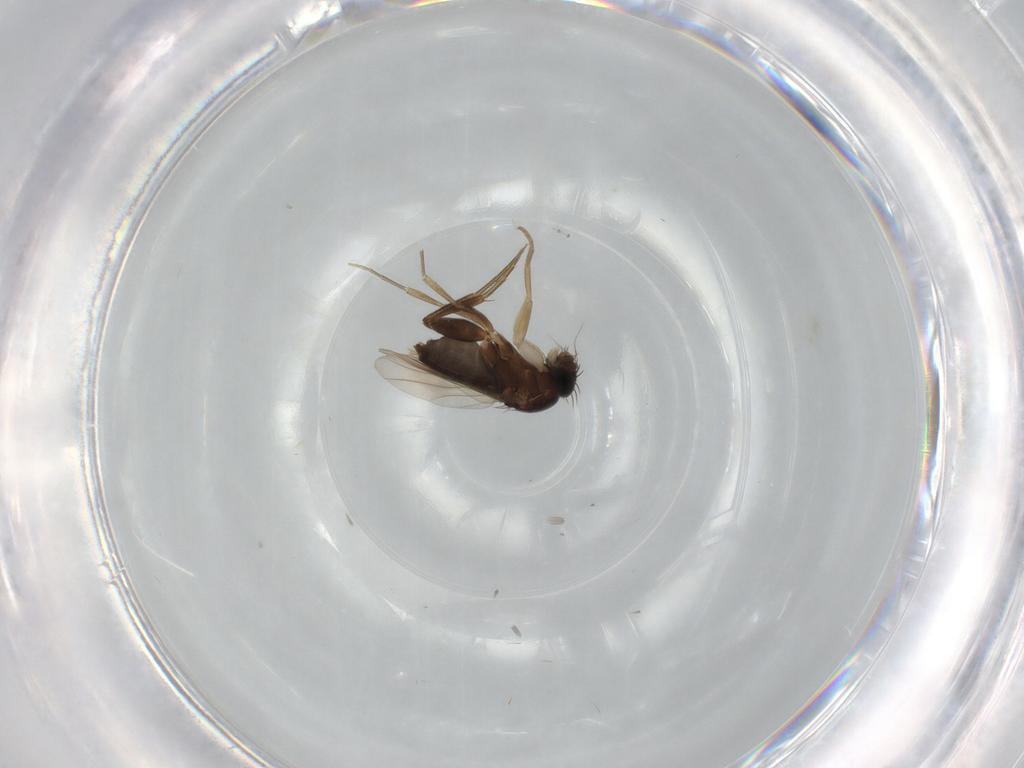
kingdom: Animalia
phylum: Arthropoda
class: Insecta
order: Diptera
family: Phoridae
